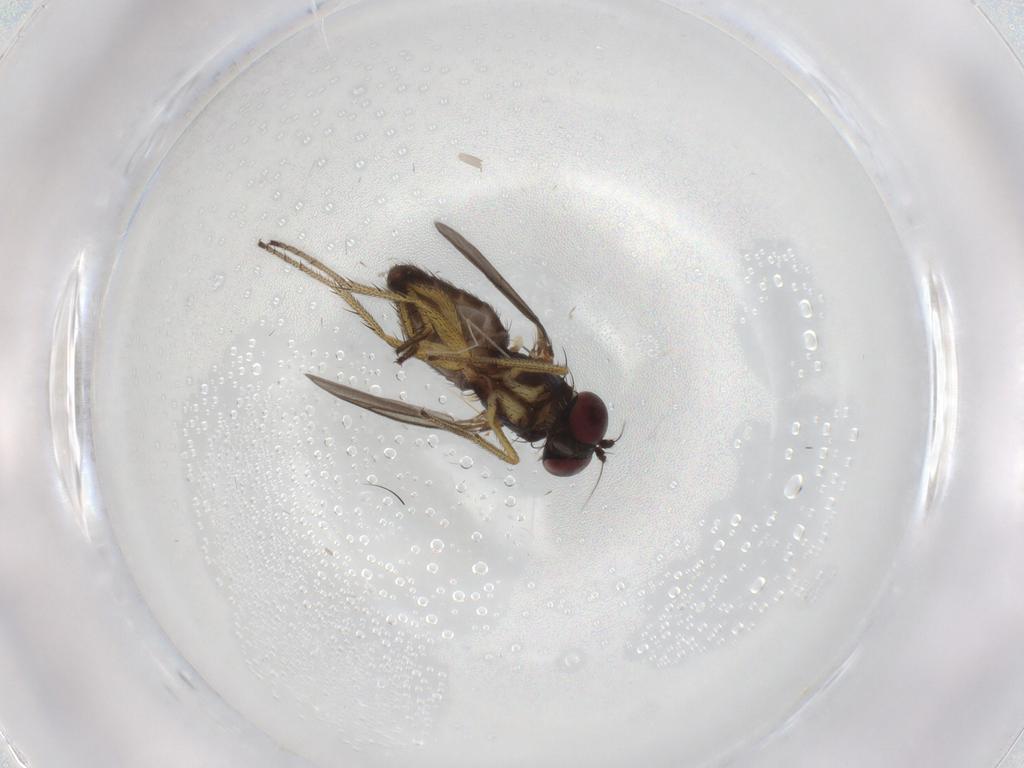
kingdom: Animalia
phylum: Arthropoda
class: Insecta
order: Diptera
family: Dolichopodidae
